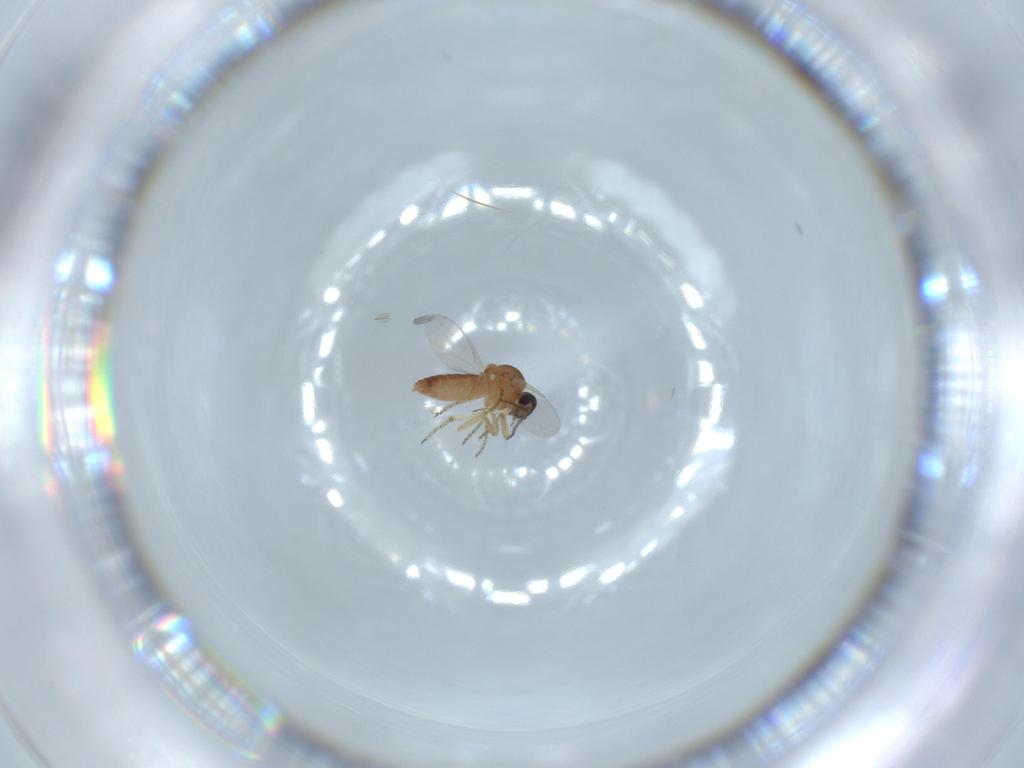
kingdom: Animalia
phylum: Arthropoda
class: Insecta
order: Diptera
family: Ceratopogonidae
